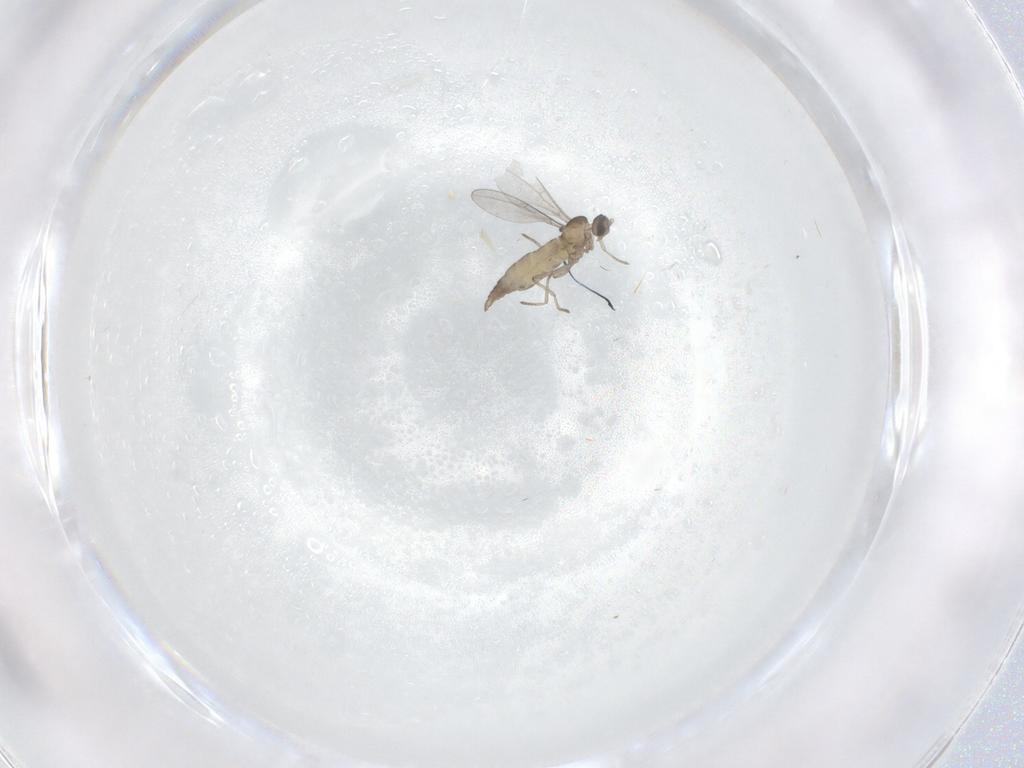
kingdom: Animalia
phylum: Arthropoda
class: Insecta
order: Diptera
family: Cecidomyiidae
